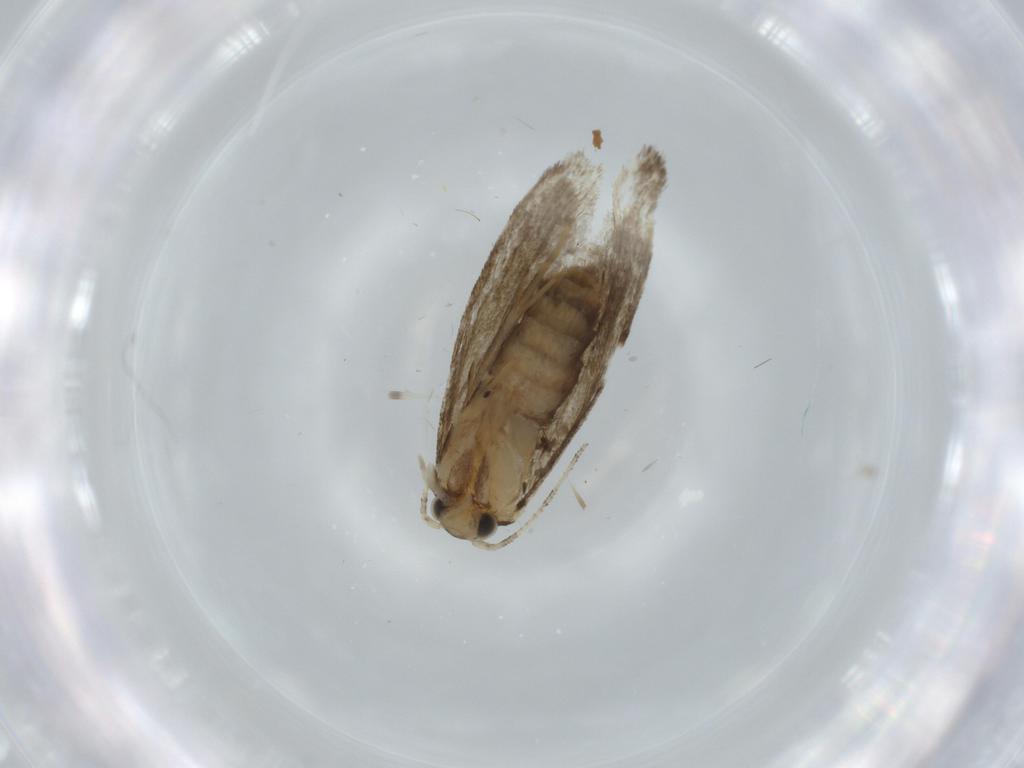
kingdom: Animalia
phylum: Arthropoda
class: Insecta
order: Lepidoptera
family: Tineidae
